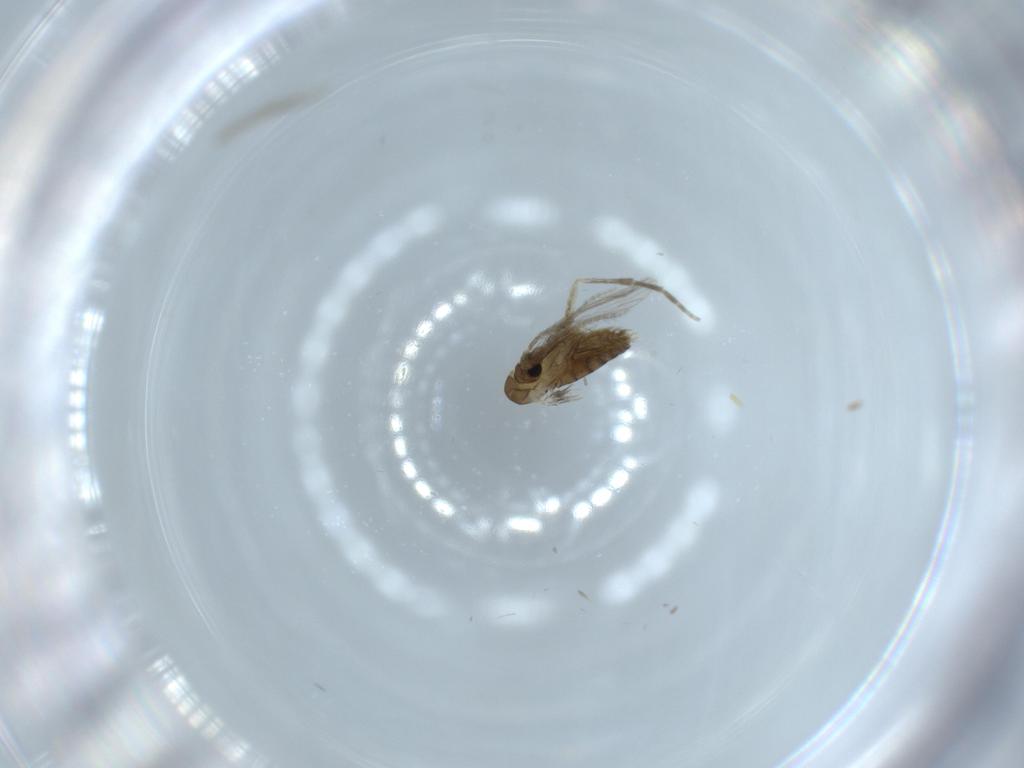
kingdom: Animalia
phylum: Arthropoda
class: Insecta
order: Diptera
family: Psychodidae
